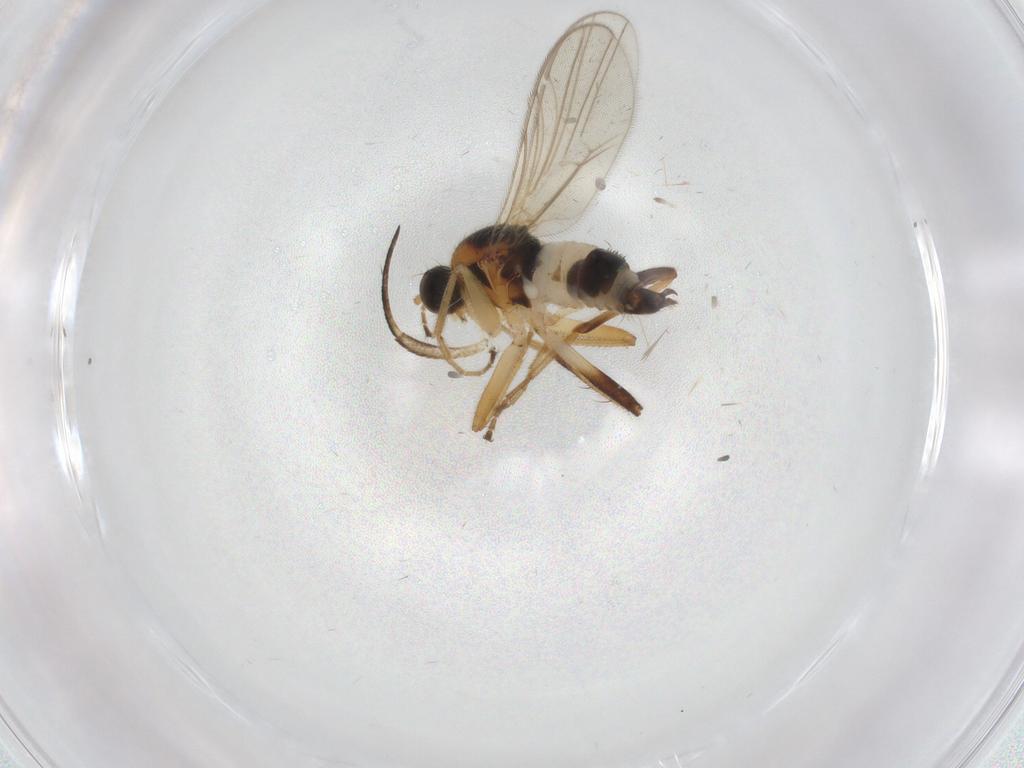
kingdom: Animalia
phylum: Arthropoda
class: Insecta
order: Diptera
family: Hybotidae
